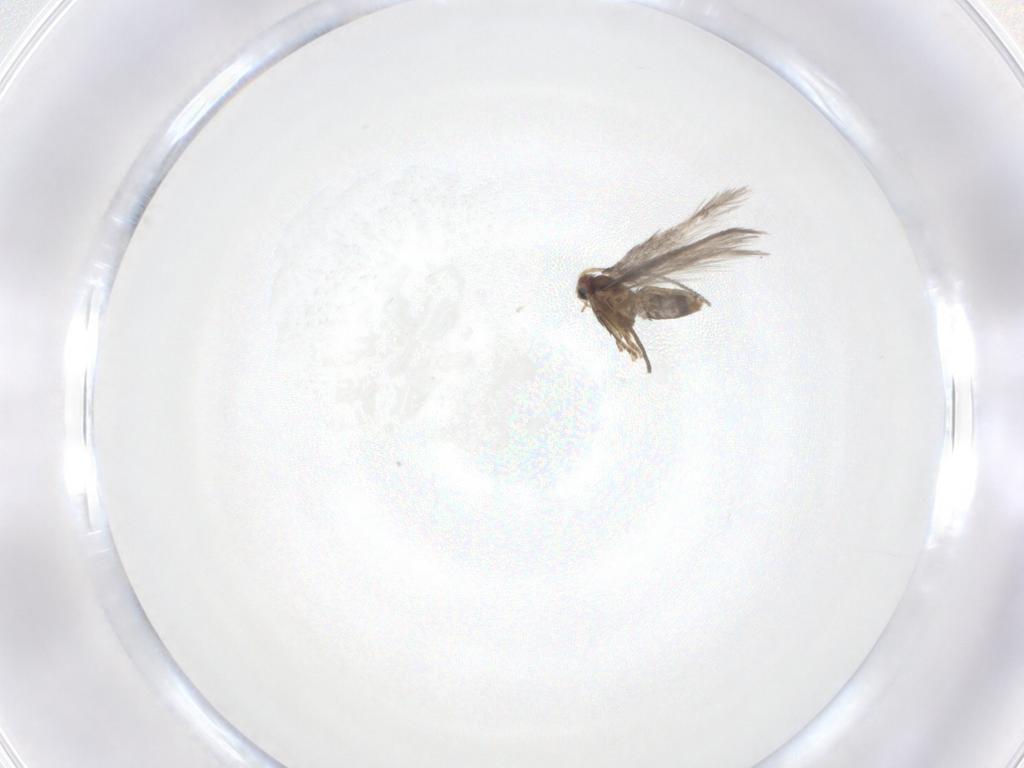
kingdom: Animalia
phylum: Arthropoda
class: Insecta
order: Lepidoptera
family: Nepticulidae
